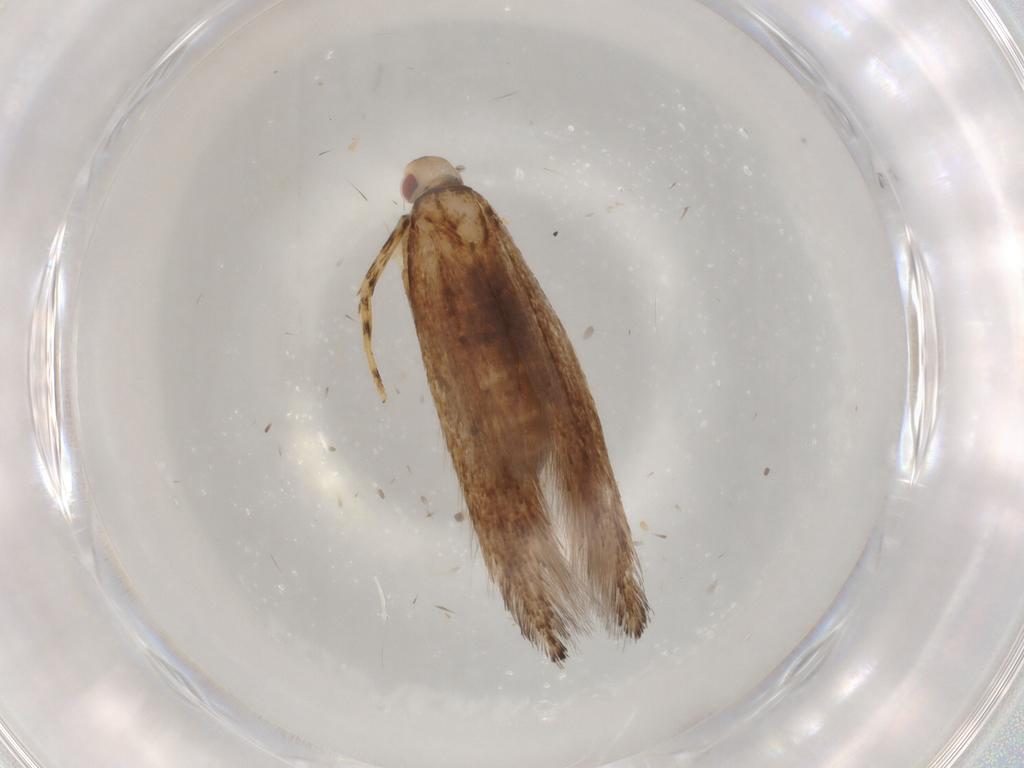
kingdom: Animalia
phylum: Arthropoda
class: Insecta
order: Lepidoptera
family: Cosmopterigidae
